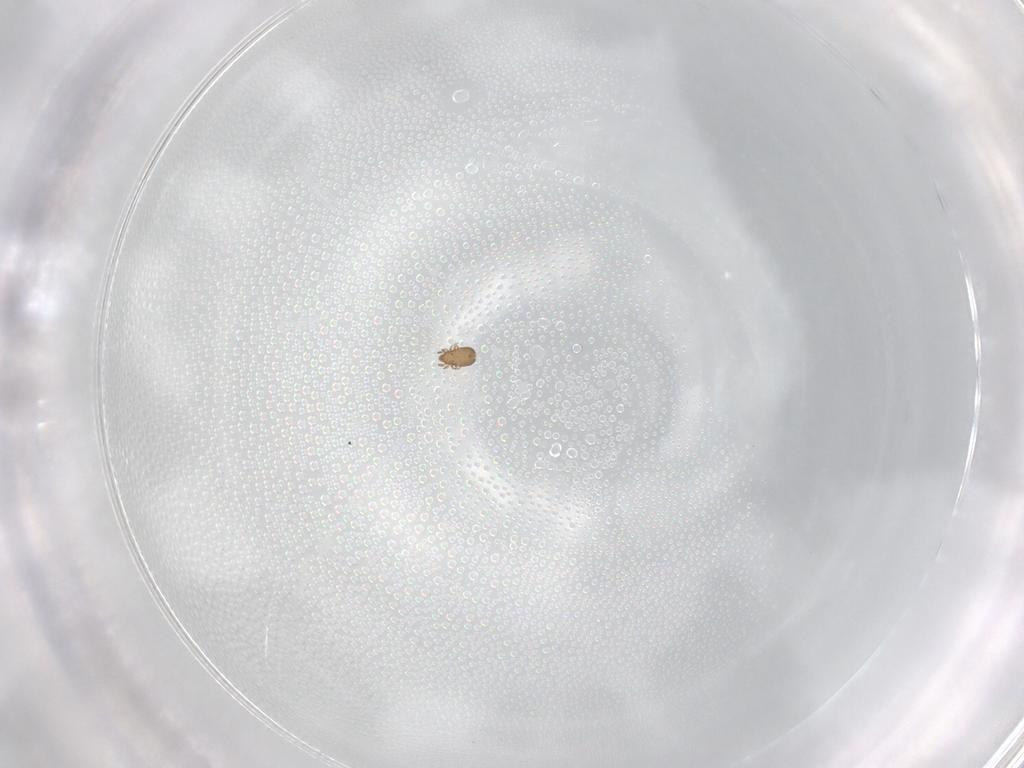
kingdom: Animalia
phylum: Arthropoda
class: Arachnida
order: Sarcoptiformes
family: Micreremidae
